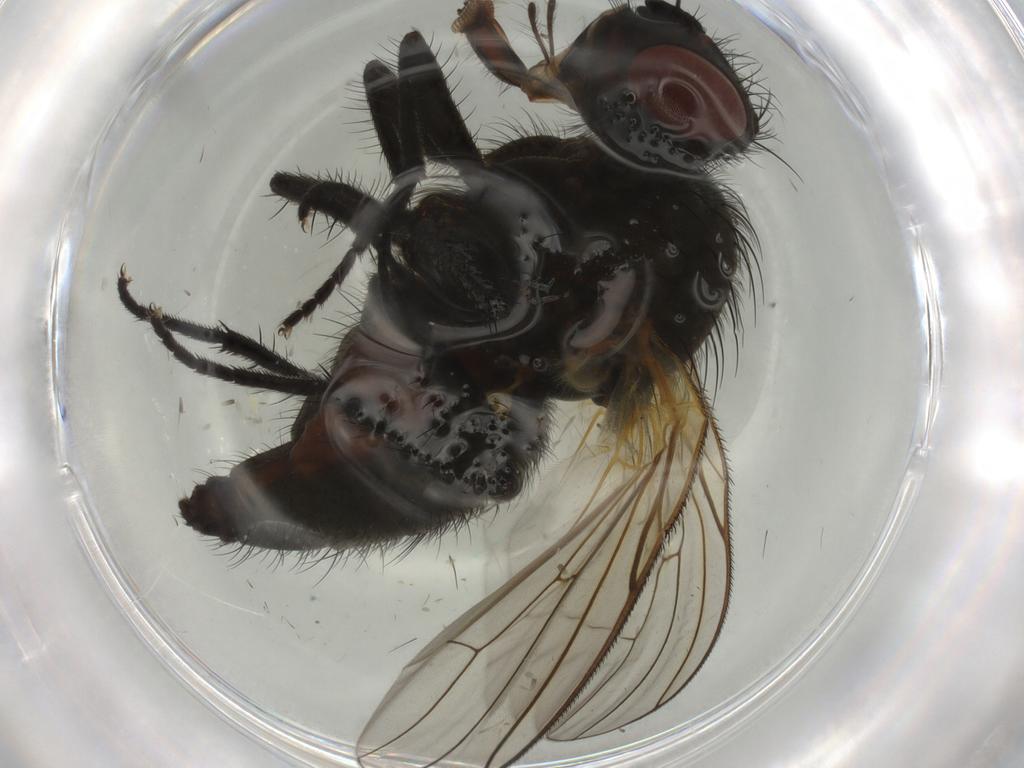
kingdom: Animalia
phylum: Arthropoda
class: Insecta
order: Diptera
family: Anthomyiidae
